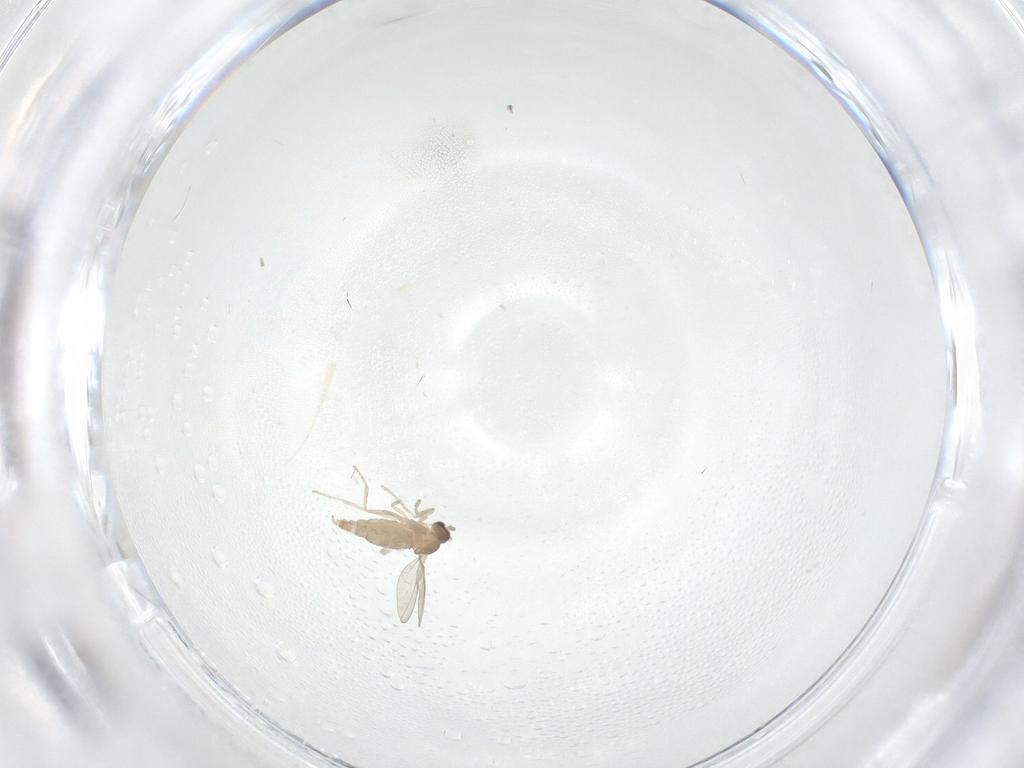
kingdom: Animalia
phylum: Arthropoda
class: Insecta
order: Diptera
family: Cecidomyiidae
